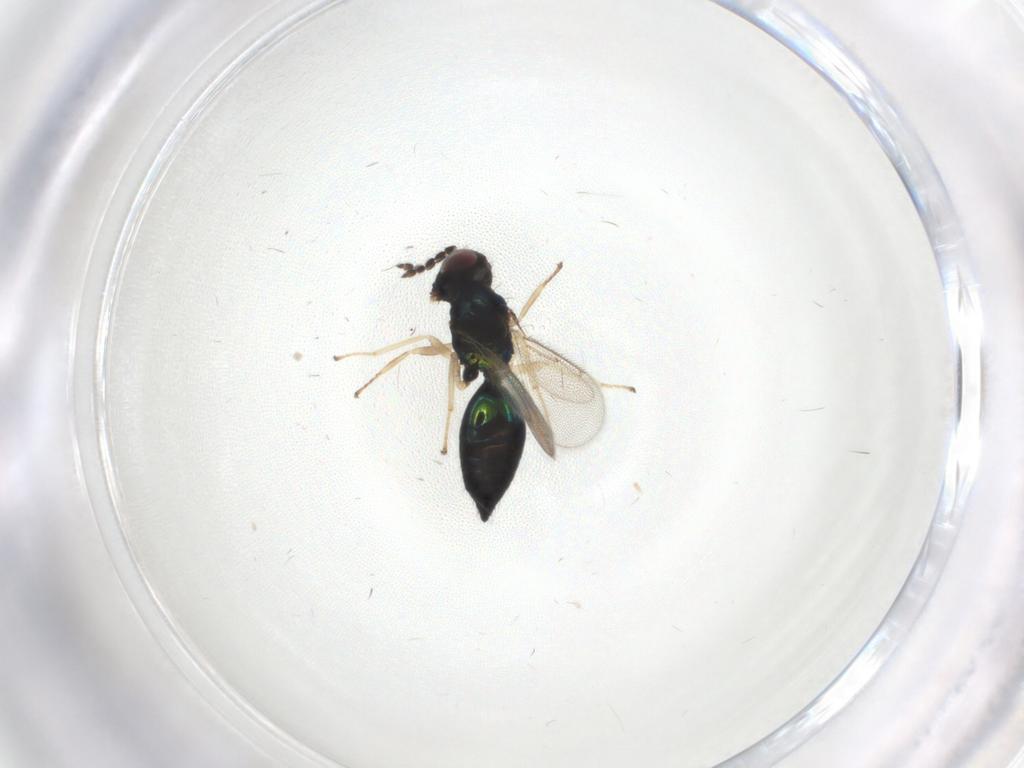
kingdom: Animalia
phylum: Arthropoda
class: Insecta
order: Hymenoptera
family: Eulophidae
